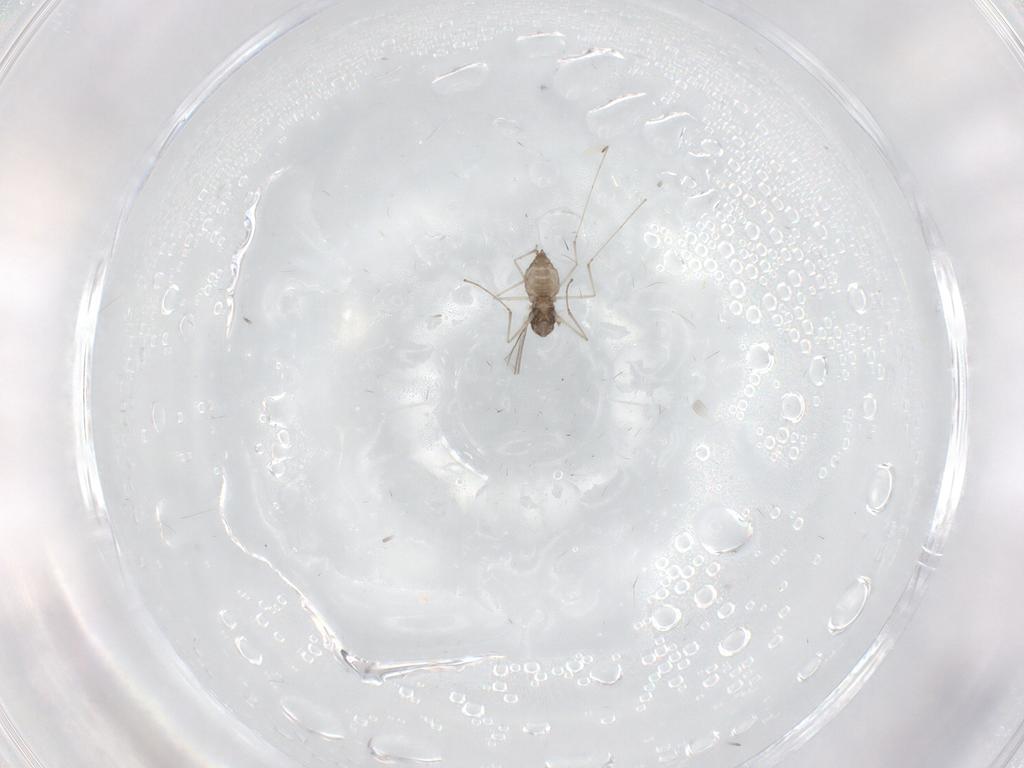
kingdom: Animalia
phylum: Arthropoda
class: Insecta
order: Diptera
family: Cecidomyiidae
